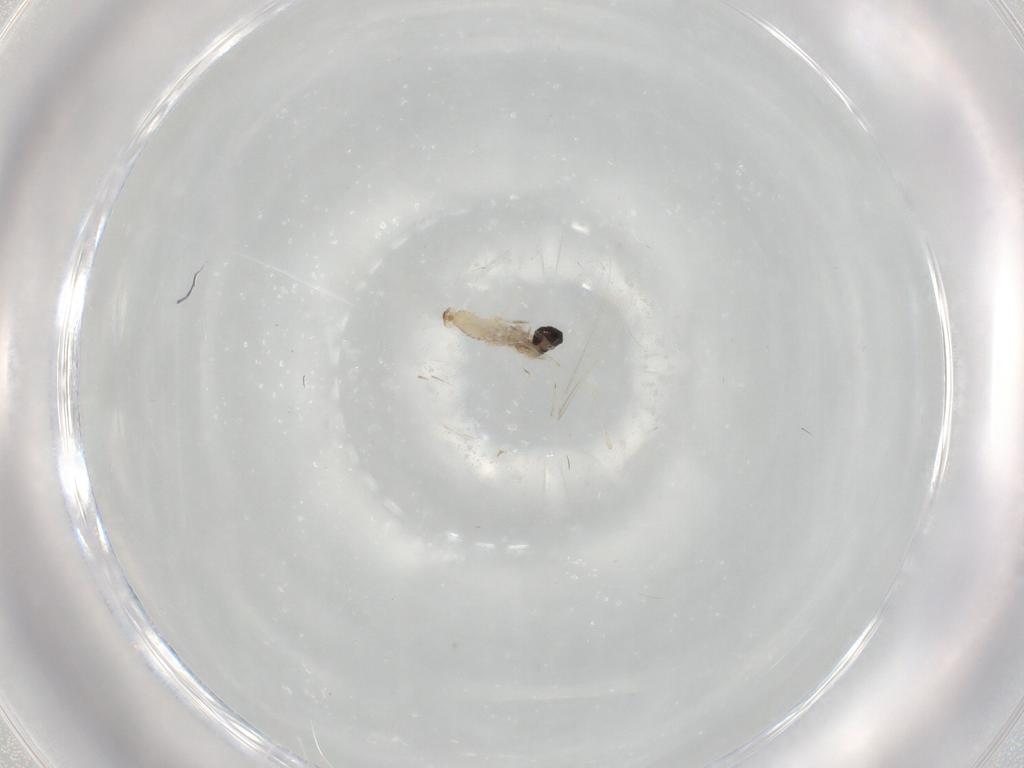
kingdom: Animalia
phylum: Arthropoda
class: Insecta
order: Diptera
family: Sciaridae
